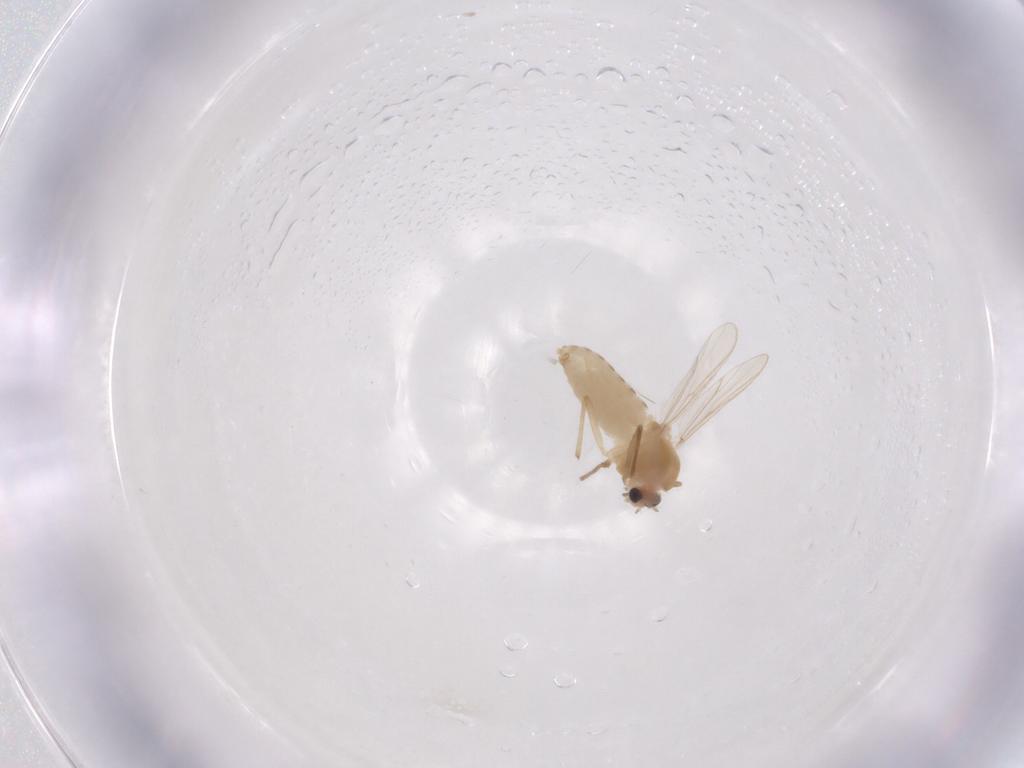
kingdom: Animalia
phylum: Arthropoda
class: Insecta
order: Diptera
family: Chironomidae
